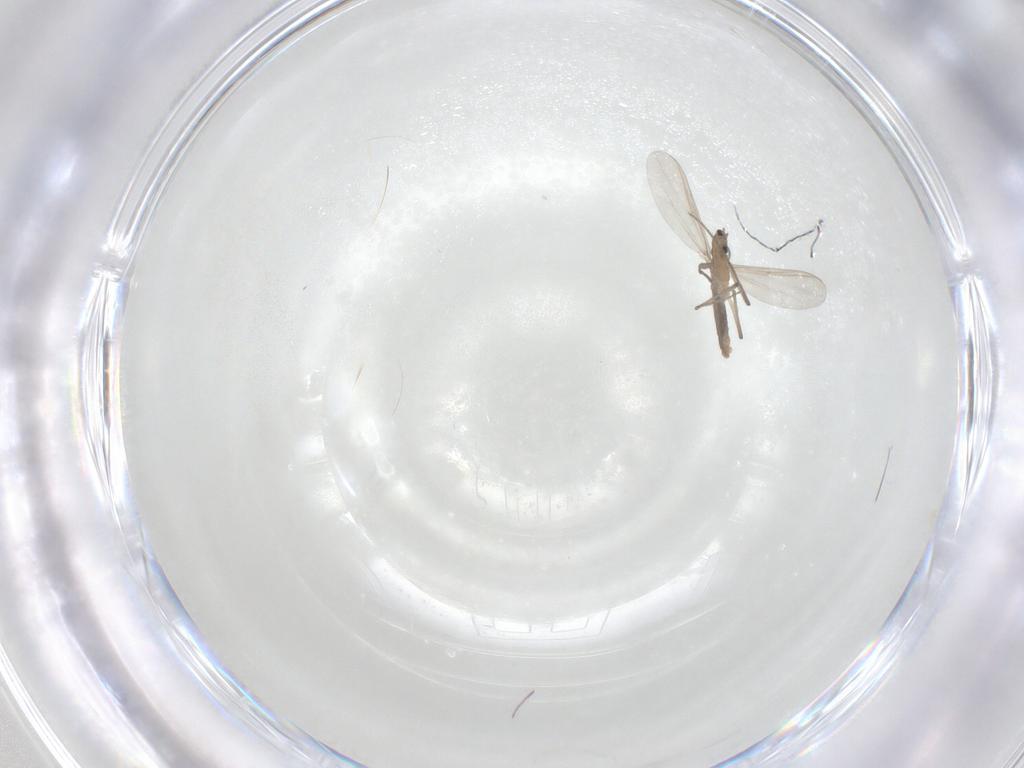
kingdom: Animalia
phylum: Arthropoda
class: Insecta
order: Diptera
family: Chironomidae
